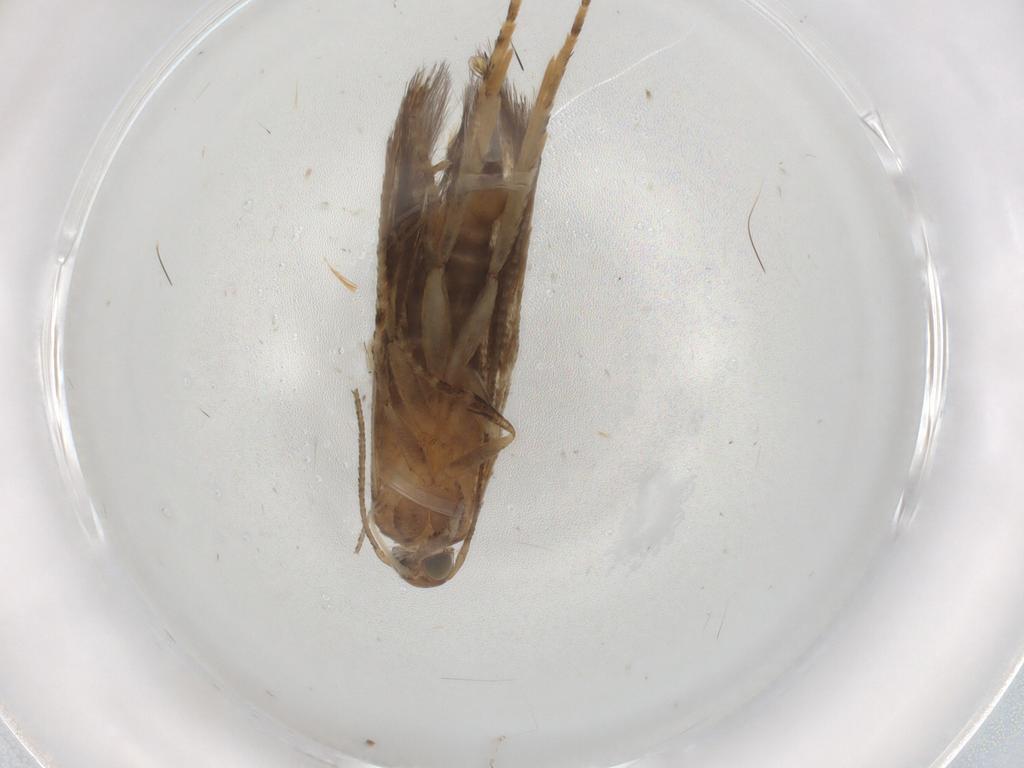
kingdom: Animalia
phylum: Arthropoda
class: Insecta
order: Lepidoptera
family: Gelechiidae
